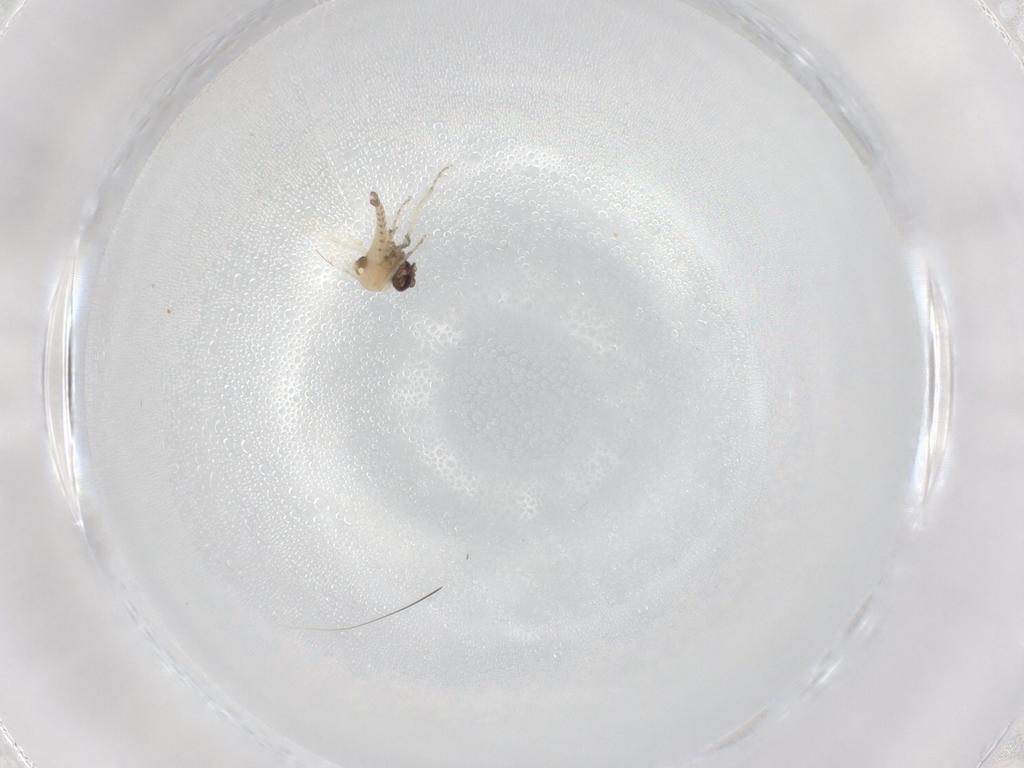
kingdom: Animalia
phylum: Arthropoda
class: Insecta
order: Diptera
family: Ceratopogonidae
